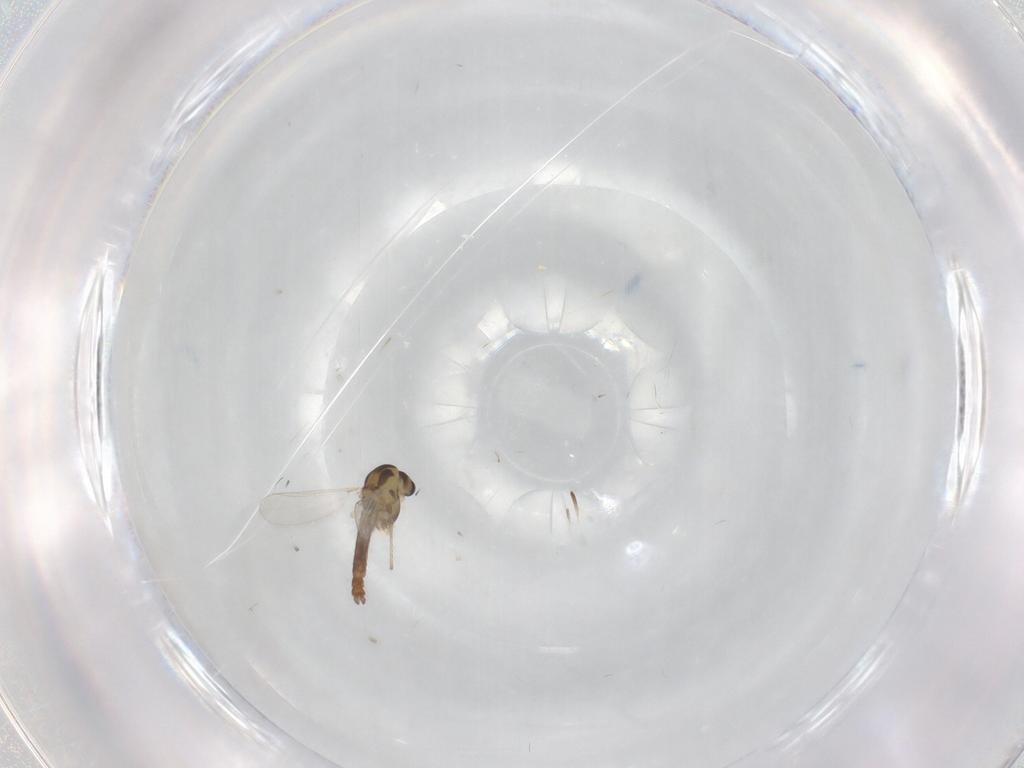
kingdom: Animalia
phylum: Arthropoda
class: Insecta
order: Diptera
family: Chironomidae
